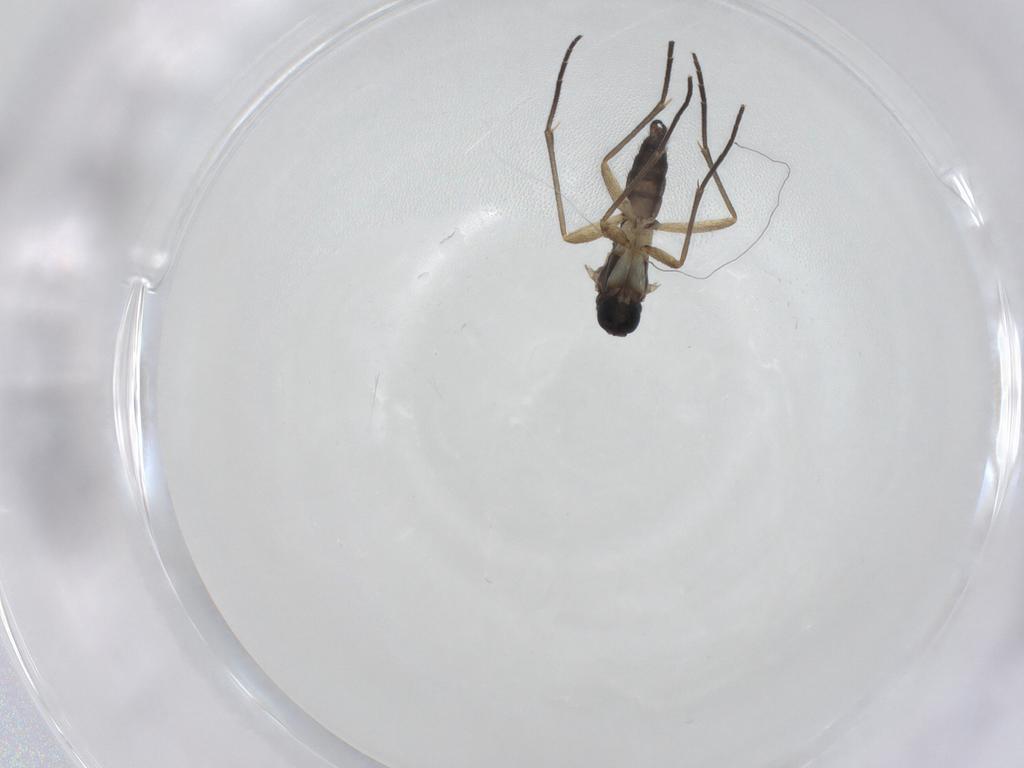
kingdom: Animalia
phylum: Arthropoda
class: Insecta
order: Diptera
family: Sciaridae
